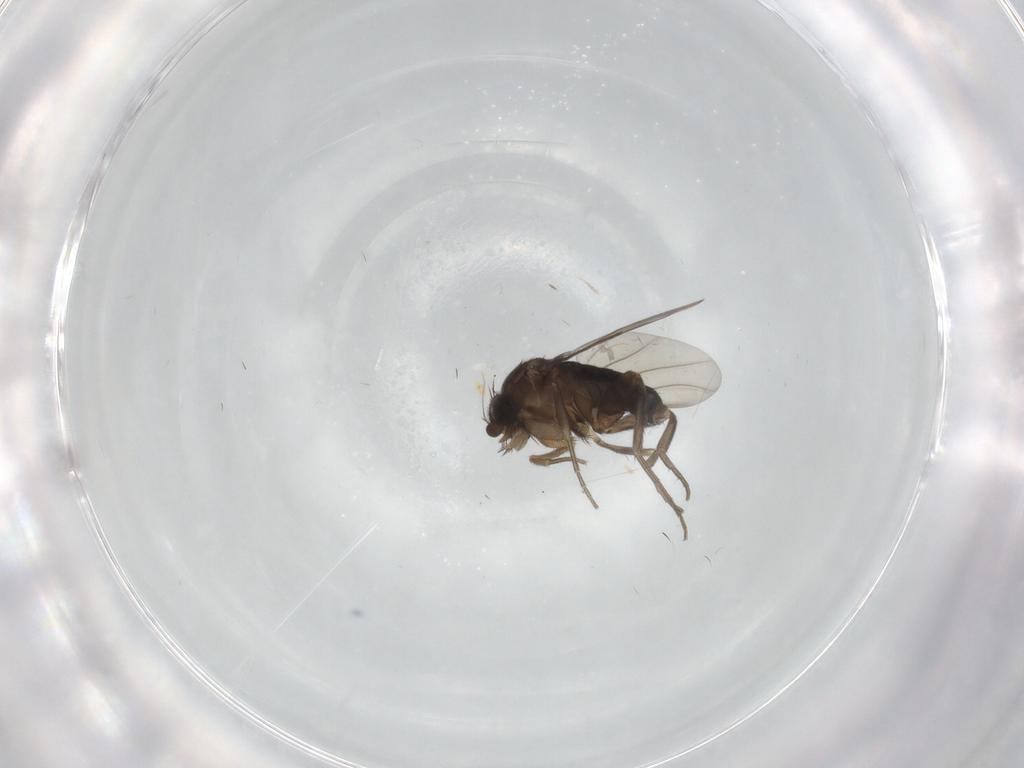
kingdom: Animalia
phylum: Arthropoda
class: Insecta
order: Diptera
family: Phoridae
